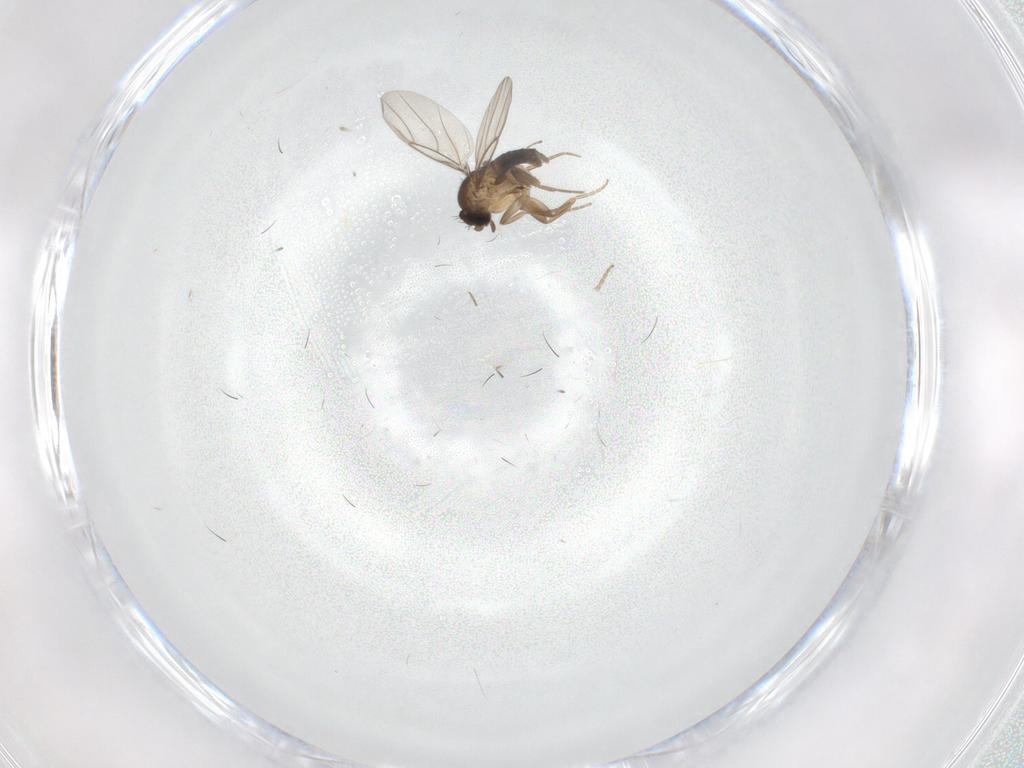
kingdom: Animalia
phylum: Arthropoda
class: Insecta
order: Diptera
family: Phoridae
